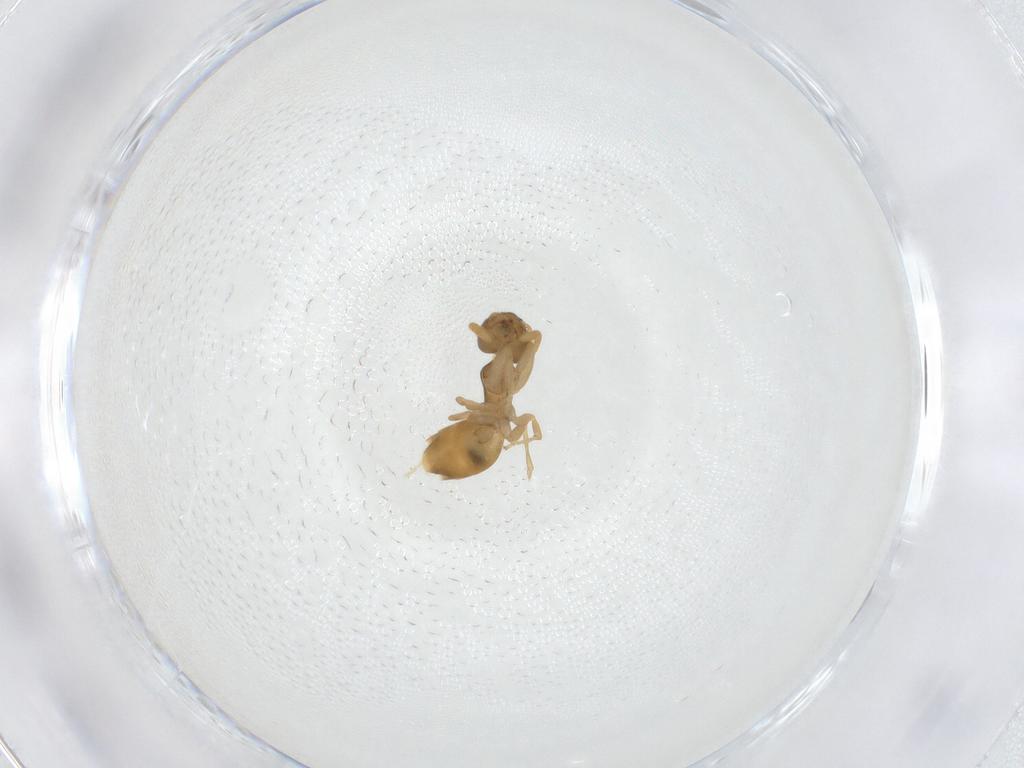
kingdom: Animalia
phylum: Arthropoda
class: Insecta
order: Hymenoptera
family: Formicidae
